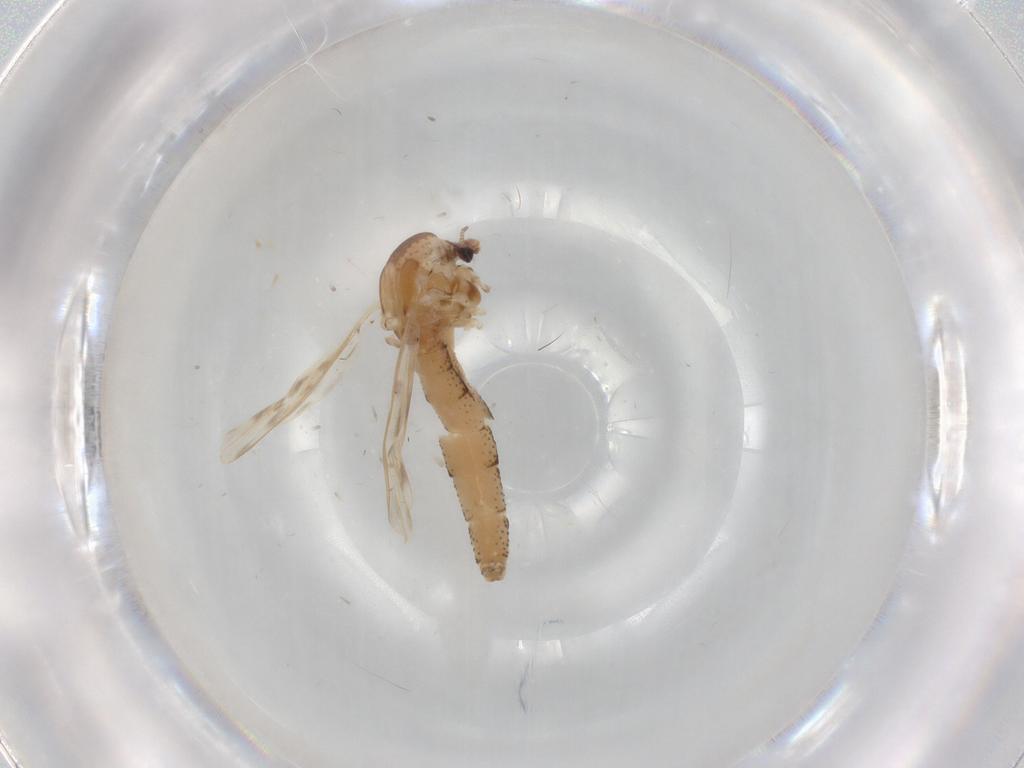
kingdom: Animalia
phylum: Arthropoda
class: Insecta
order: Diptera
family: Chaoboridae
